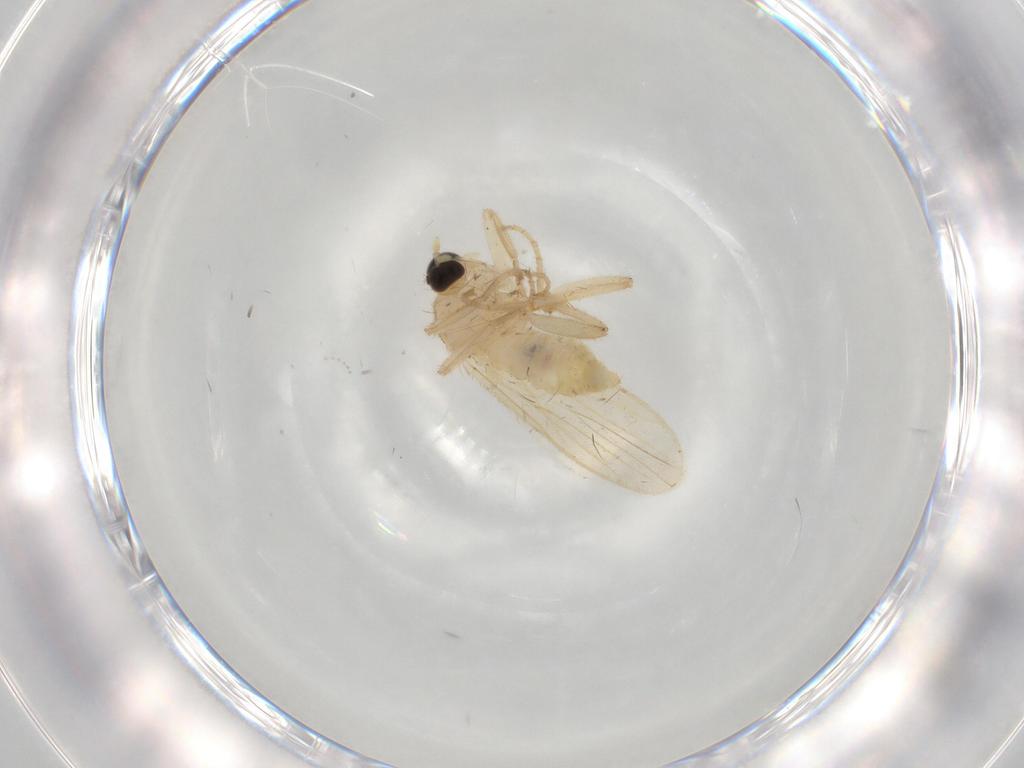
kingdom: Animalia
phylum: Arthropoda
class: Insecta
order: Diptera
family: Hybotidae
